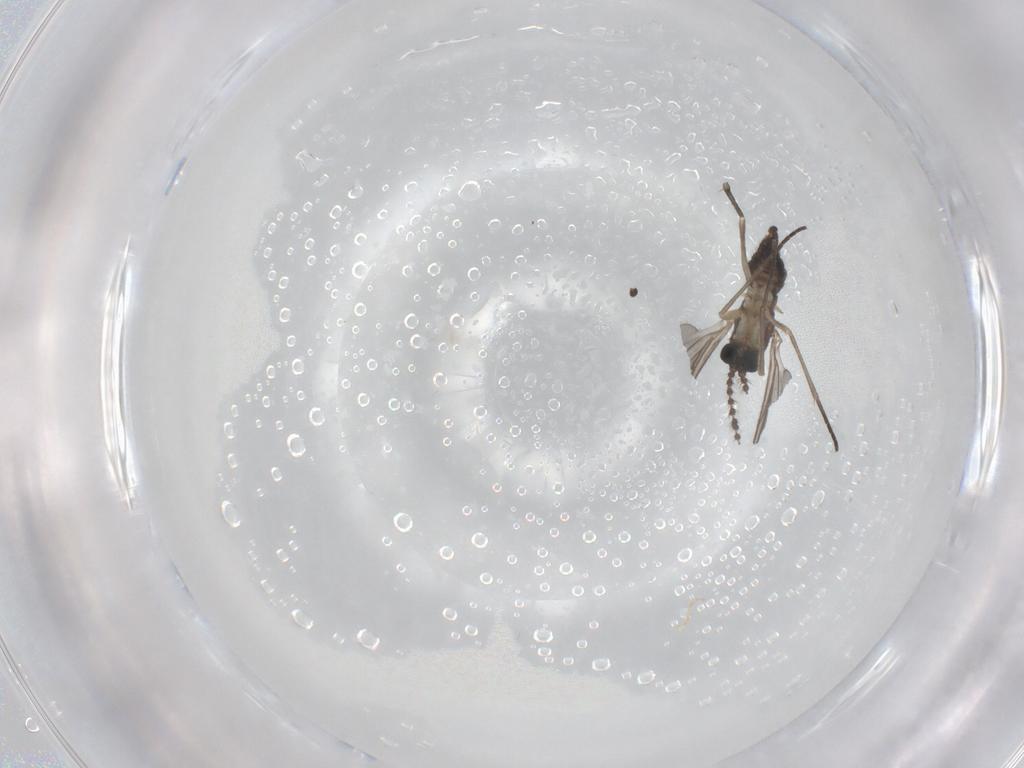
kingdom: Animalia
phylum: Arthropoda
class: Insecta
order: Diptera
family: Sciaridae
